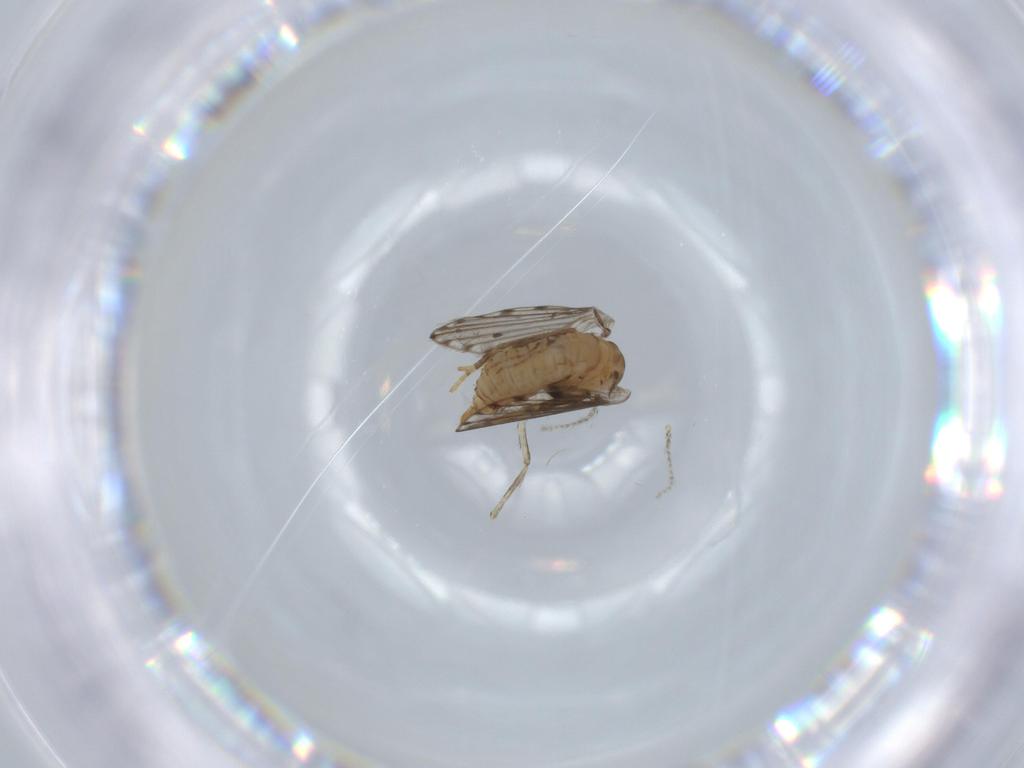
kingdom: Animalia
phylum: Arthropoda
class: Insecta
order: Diptera
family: Psychodidae
